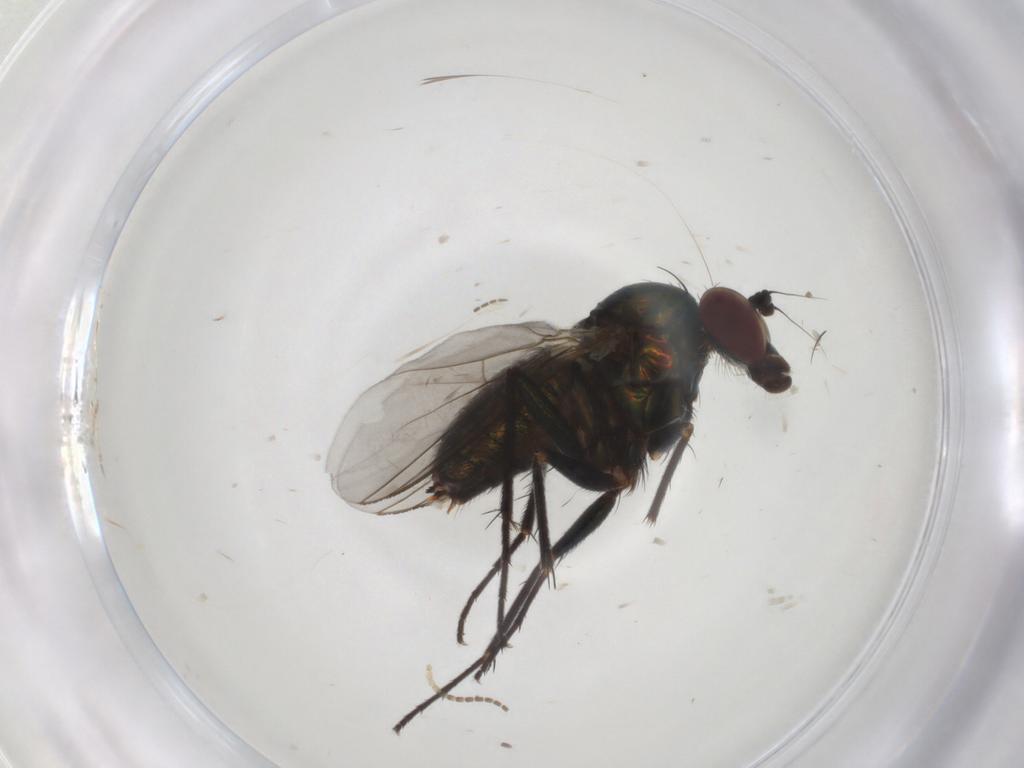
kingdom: Animalia
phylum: Arthropoda
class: Insecta
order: Diptera
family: Dolichopodidae
